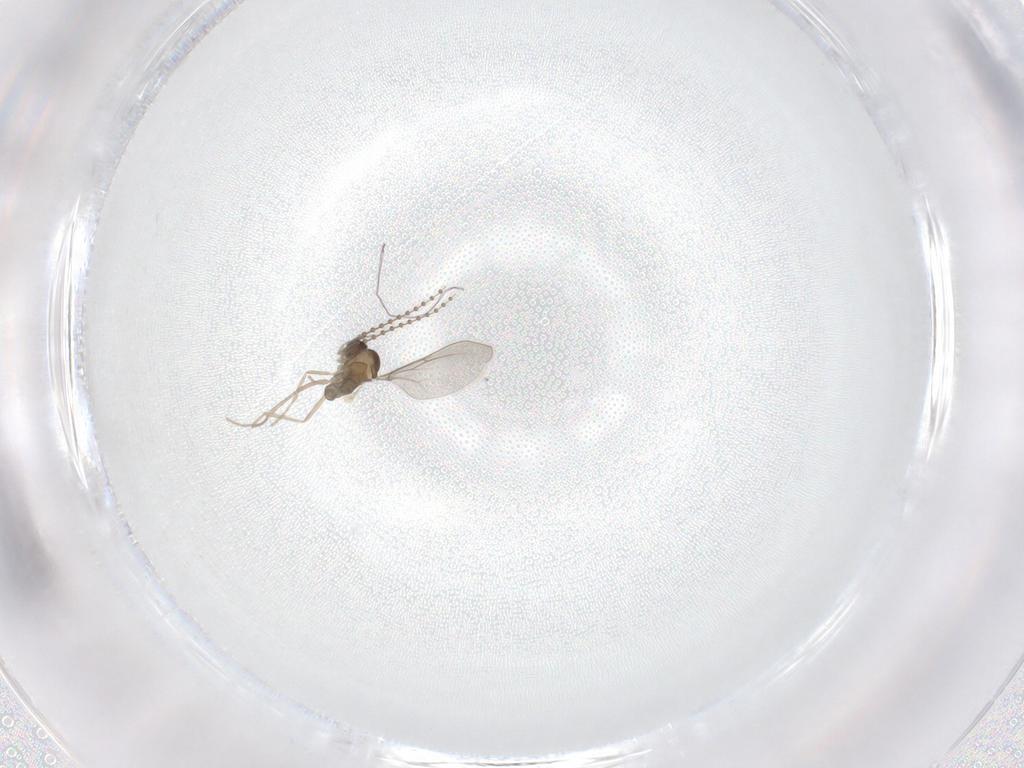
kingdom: Animalia
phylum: Arthropoda
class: Insecta
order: Diptera
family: Cecidomyiidae
